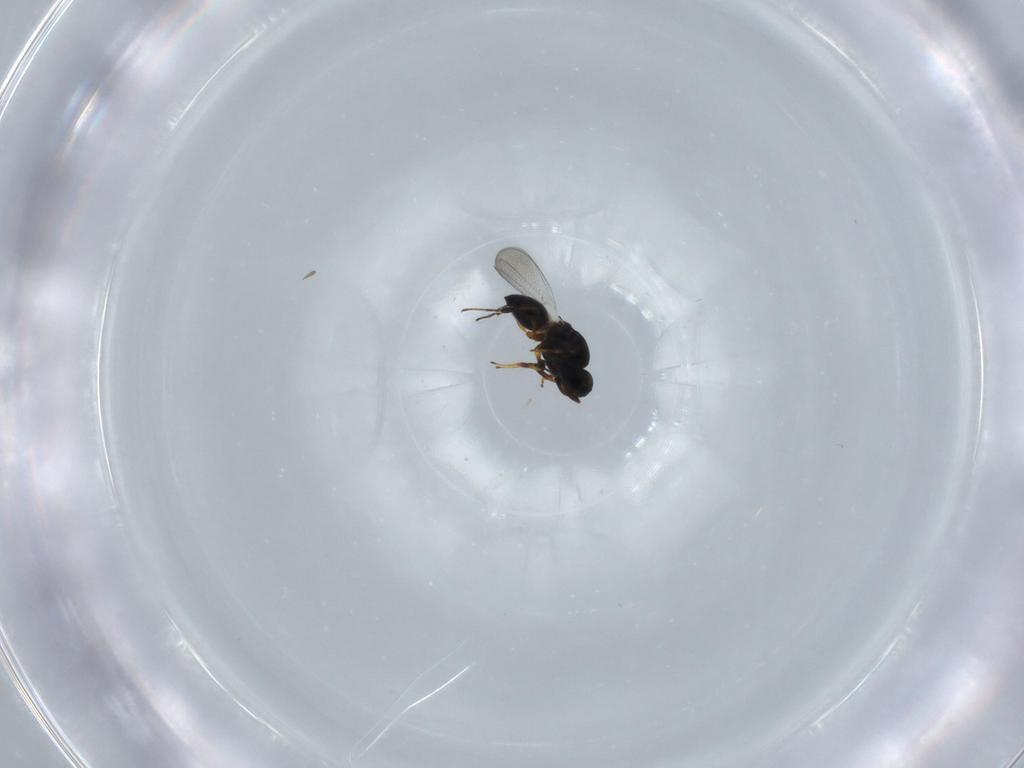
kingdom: Animalia
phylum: Arthropoda
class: Insecta
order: Hymenoptera
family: Platygastridae
